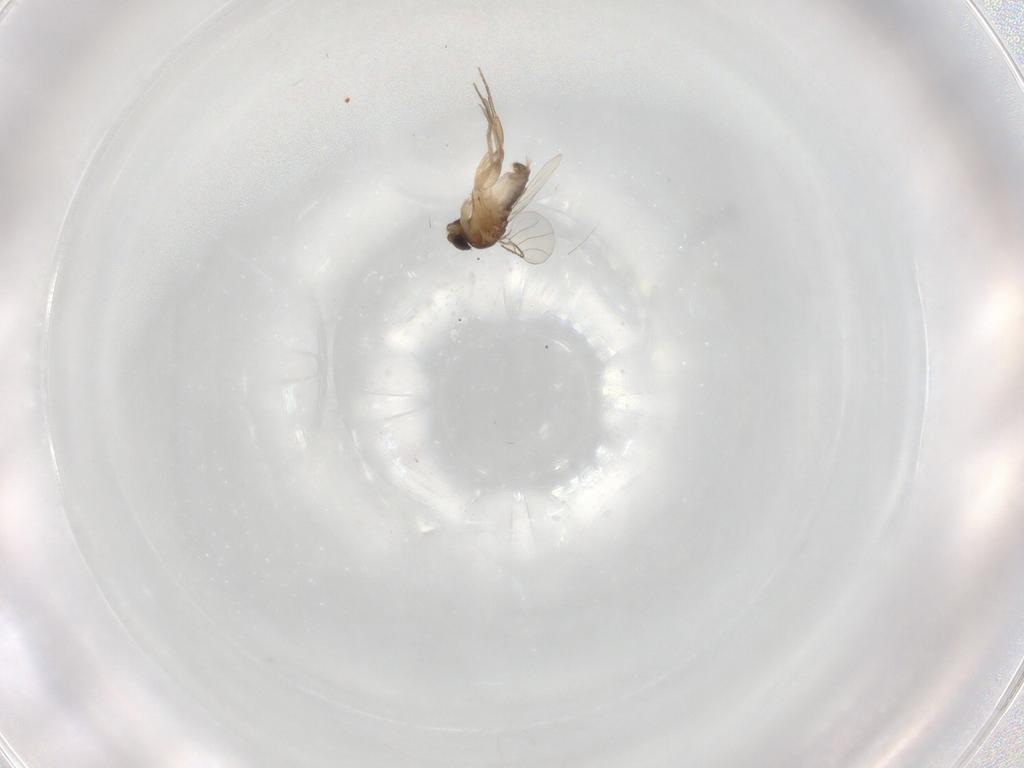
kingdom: Animalia
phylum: Arthropoda
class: Insecta
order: Diptera
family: Phoridae
